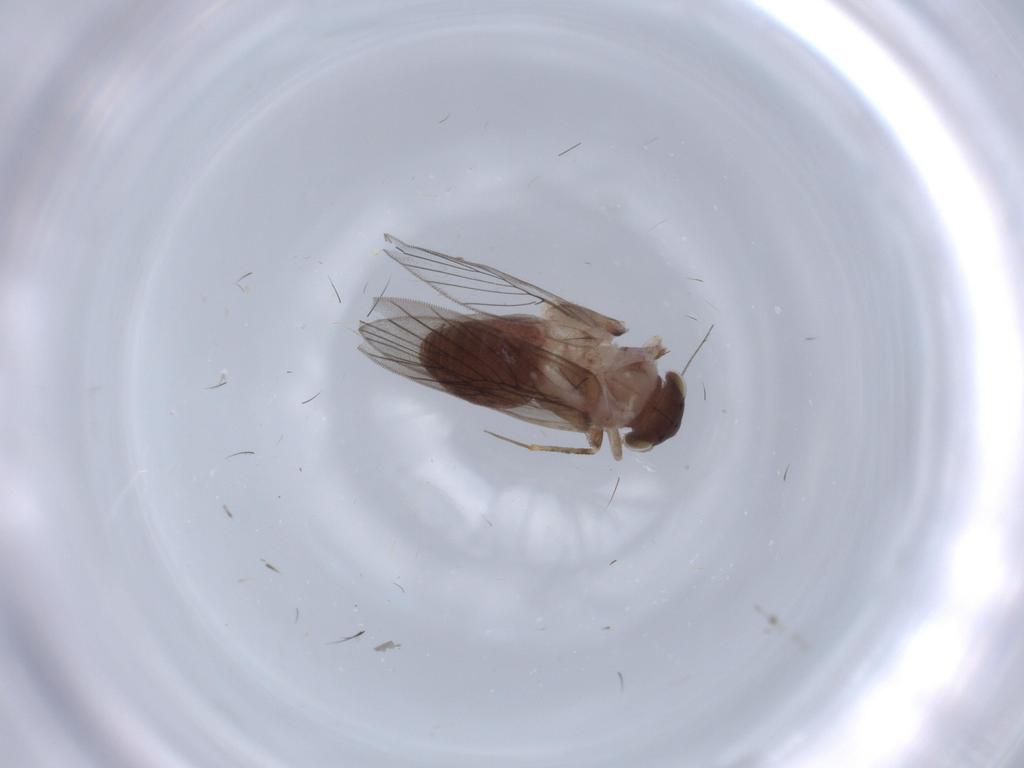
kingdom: Animalia
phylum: Arthropoda
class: Insecta
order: Psocodea
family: Lepidopsocidae
